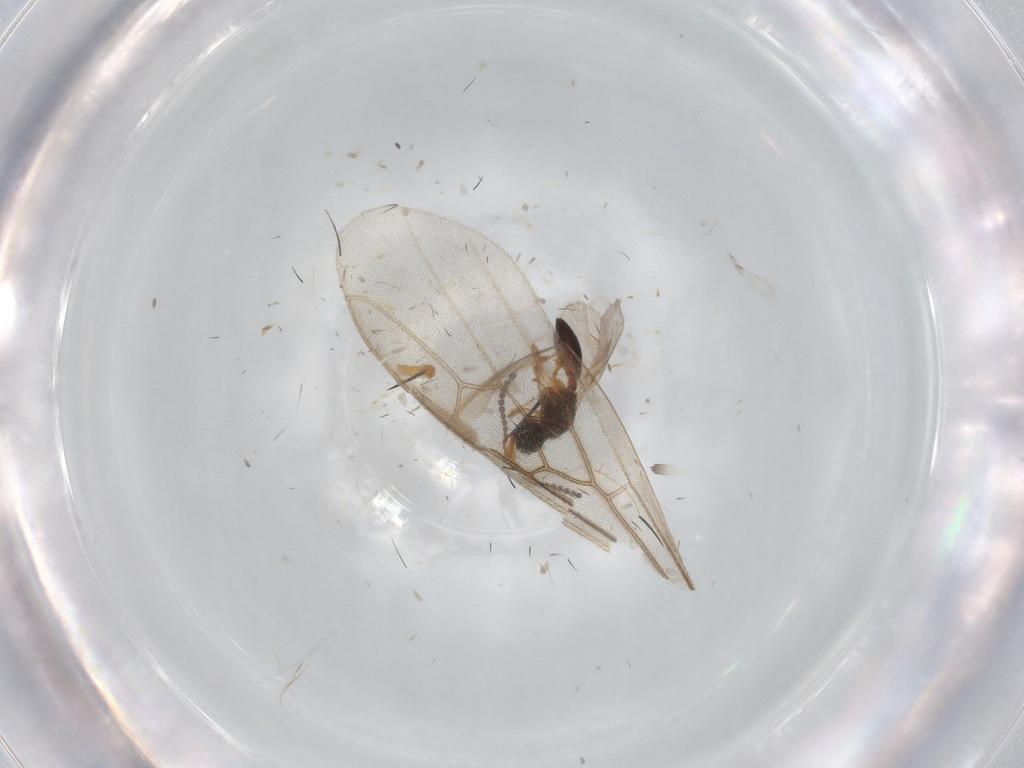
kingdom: Animalia
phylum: Arthropoda
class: Insecta
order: Hymenoptera
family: Diapriidae
